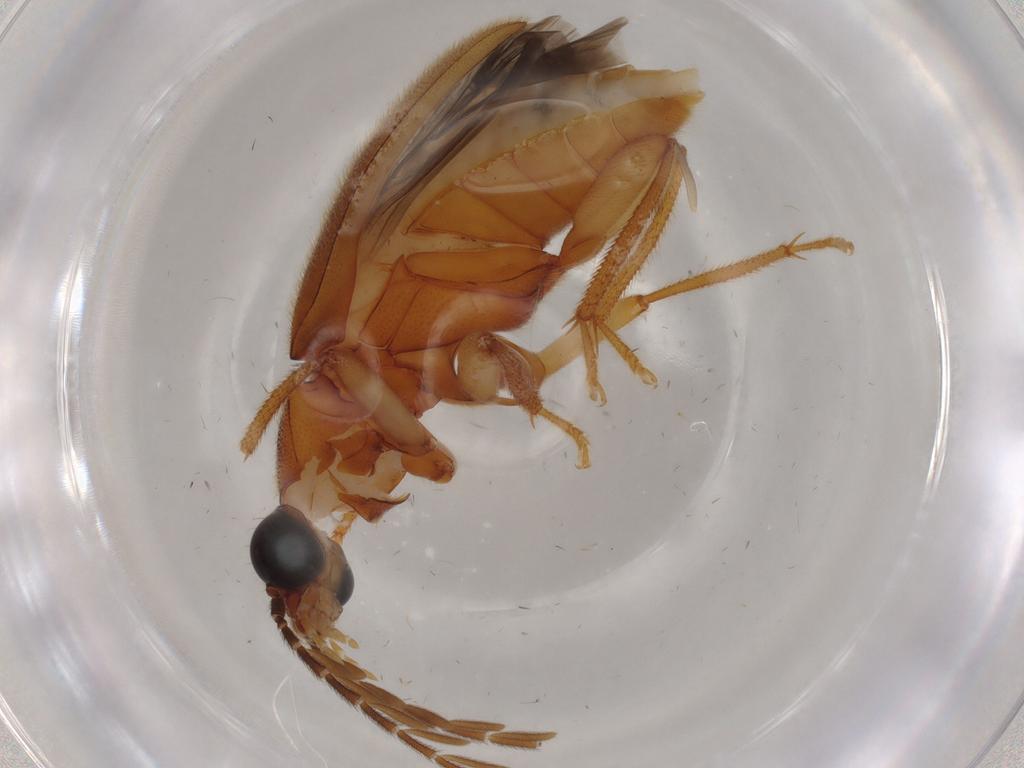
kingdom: Animalia
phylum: Arthropoda
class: Insecta
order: Coleoptera
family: Ptilodactylidae
